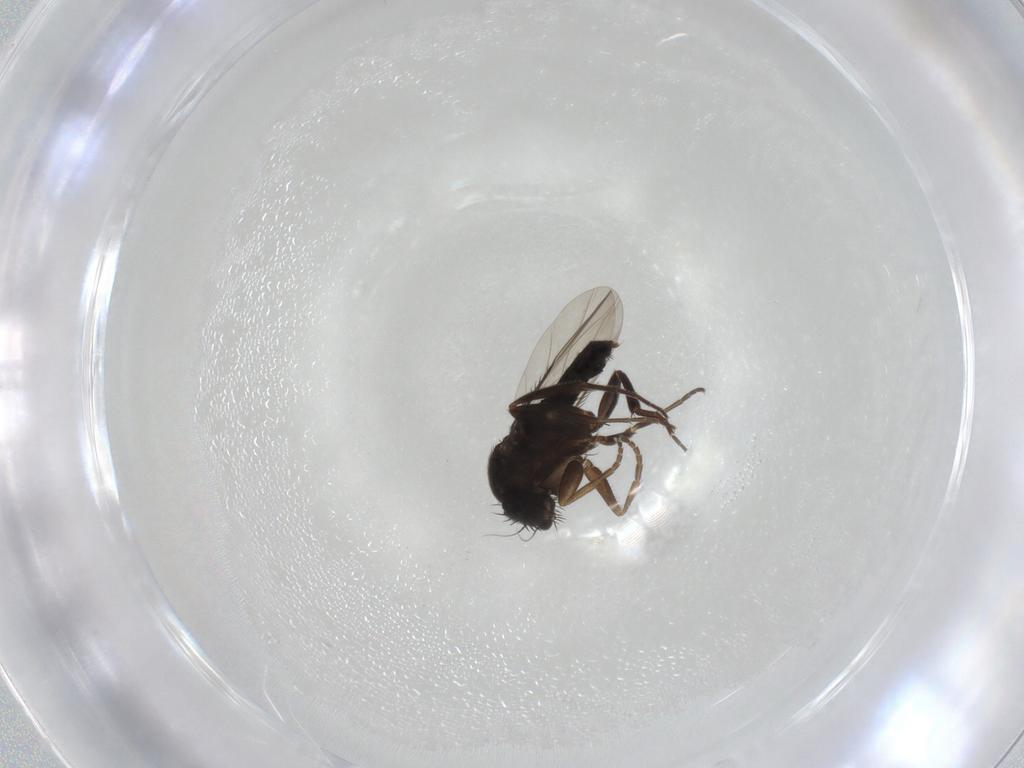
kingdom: Animalia
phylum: Arthropoda
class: Insecta
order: Diptera
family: Phoridae
